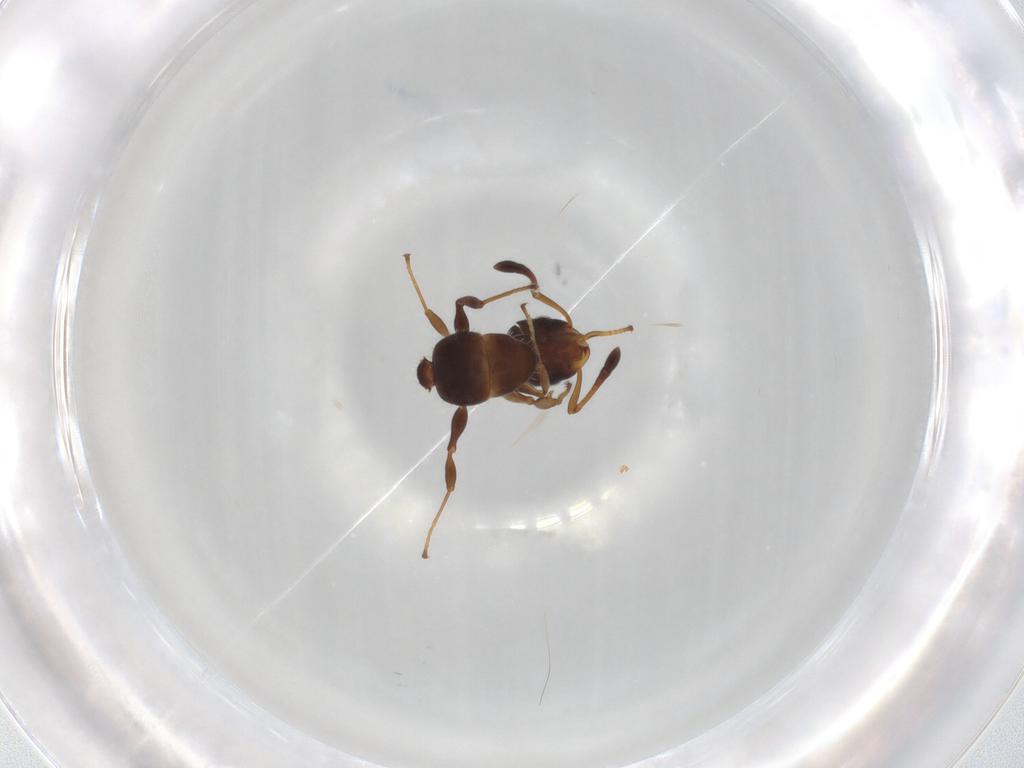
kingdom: Animalia
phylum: Arthropoda
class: Insecta
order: Hymenoptera
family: Formicidae
